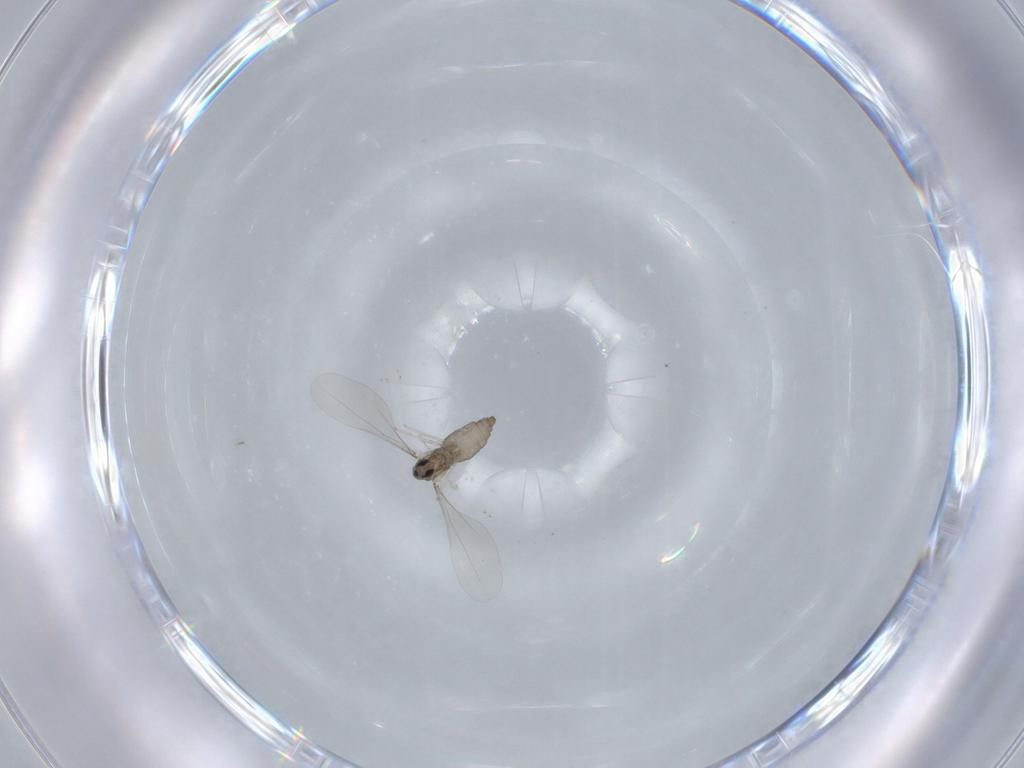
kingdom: Animalia
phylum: Arthropoda
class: Insecta
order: Diptera
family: Cecidomyiidae
